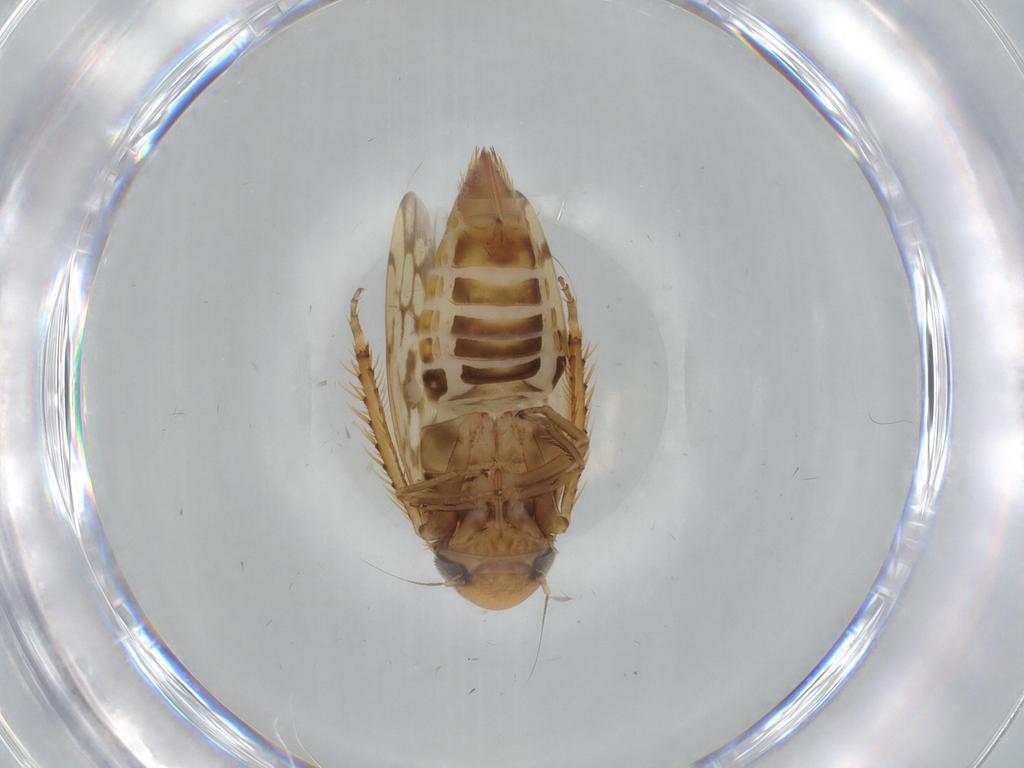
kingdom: Animalia
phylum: Arthropoda
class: Insecta
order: Hemiptera
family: Cicadellidae
